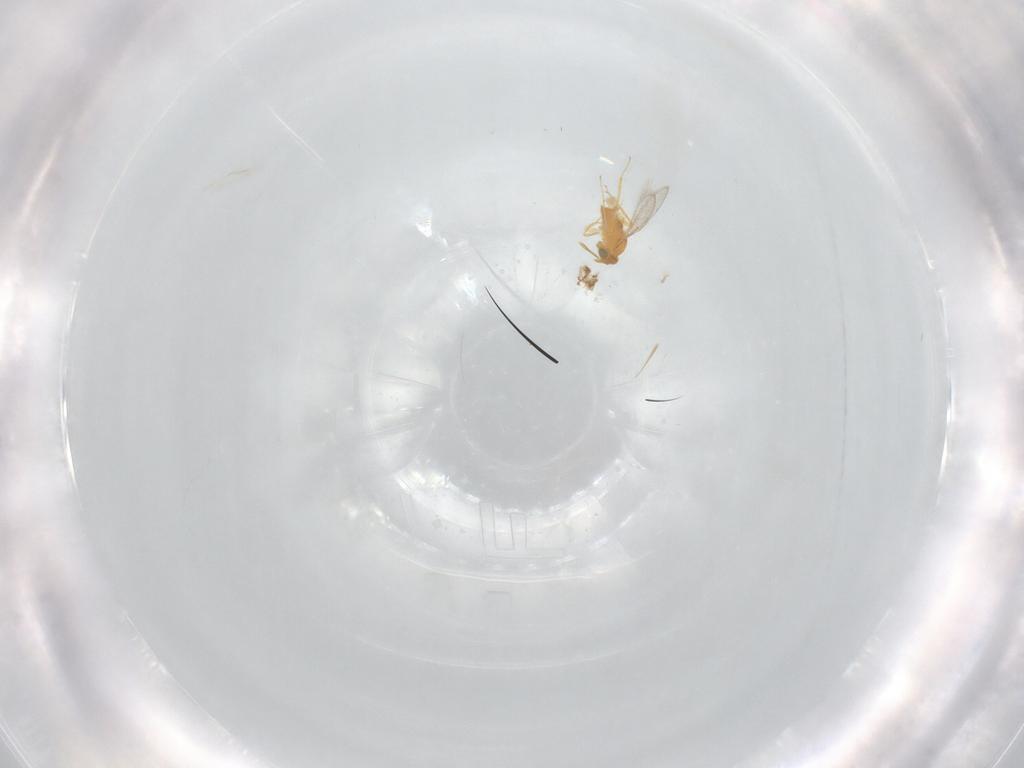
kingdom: Animalia
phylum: Arthropoda
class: Insecta
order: Hymenoptera
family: Aphelinidae
